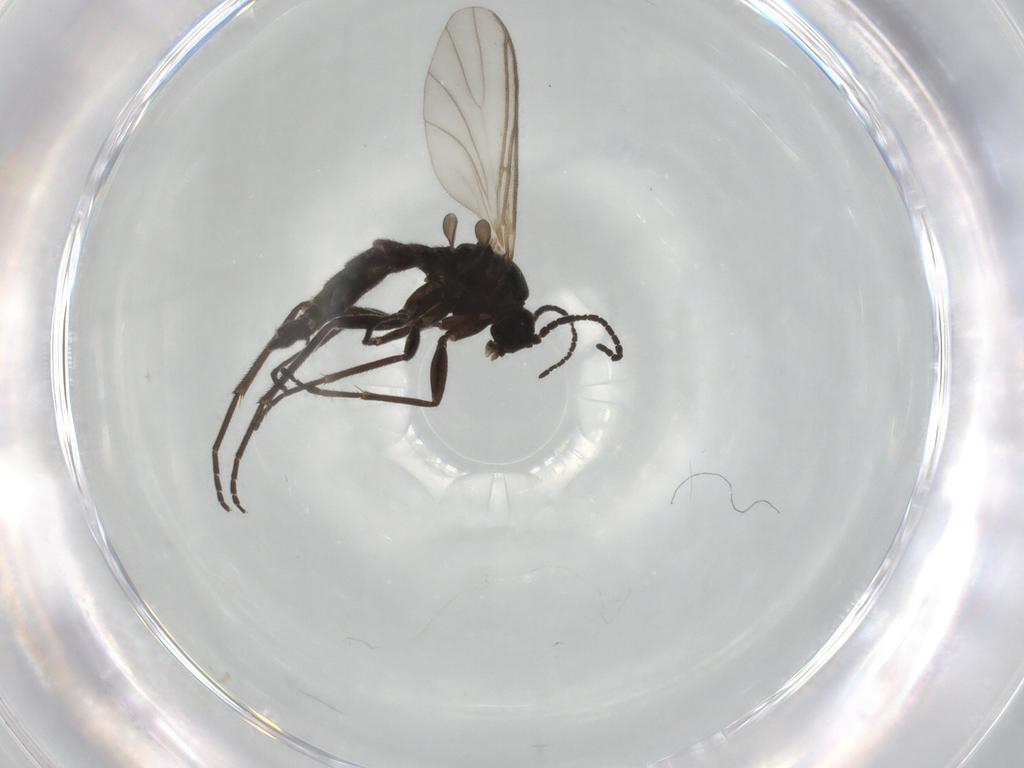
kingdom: Animalia
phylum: Arthropoda
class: Insecta
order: Diptera
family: Sciaridae
